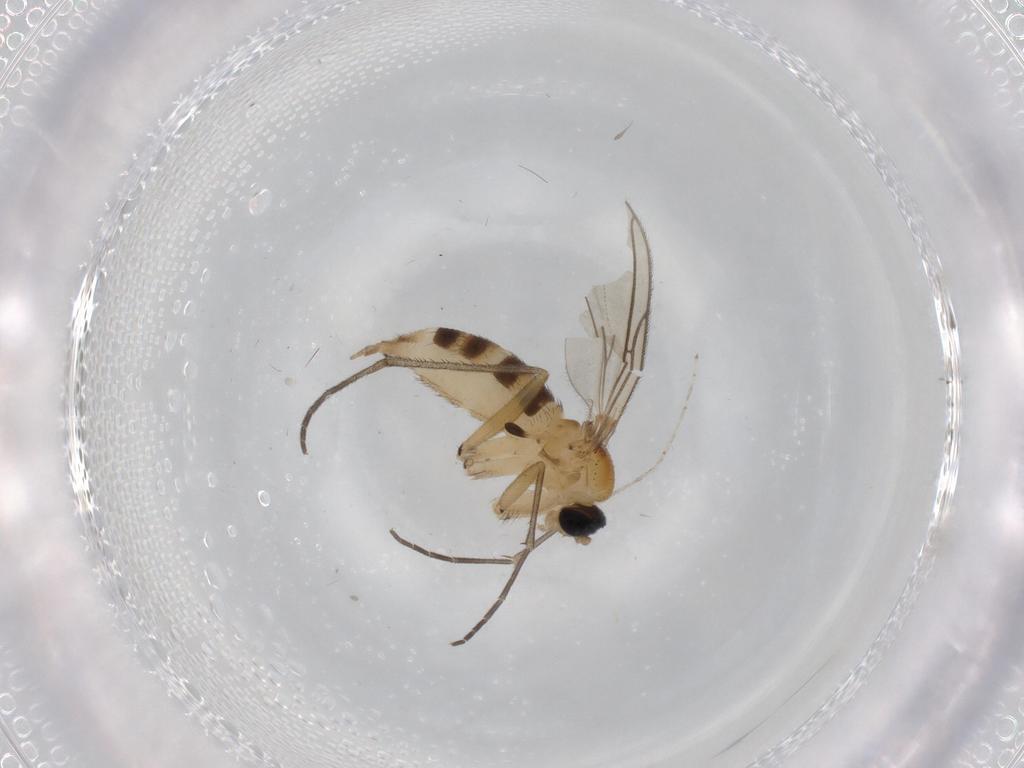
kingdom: Animalia
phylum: Arthropoda
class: Insecta
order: Diptera
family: Sciaridae
